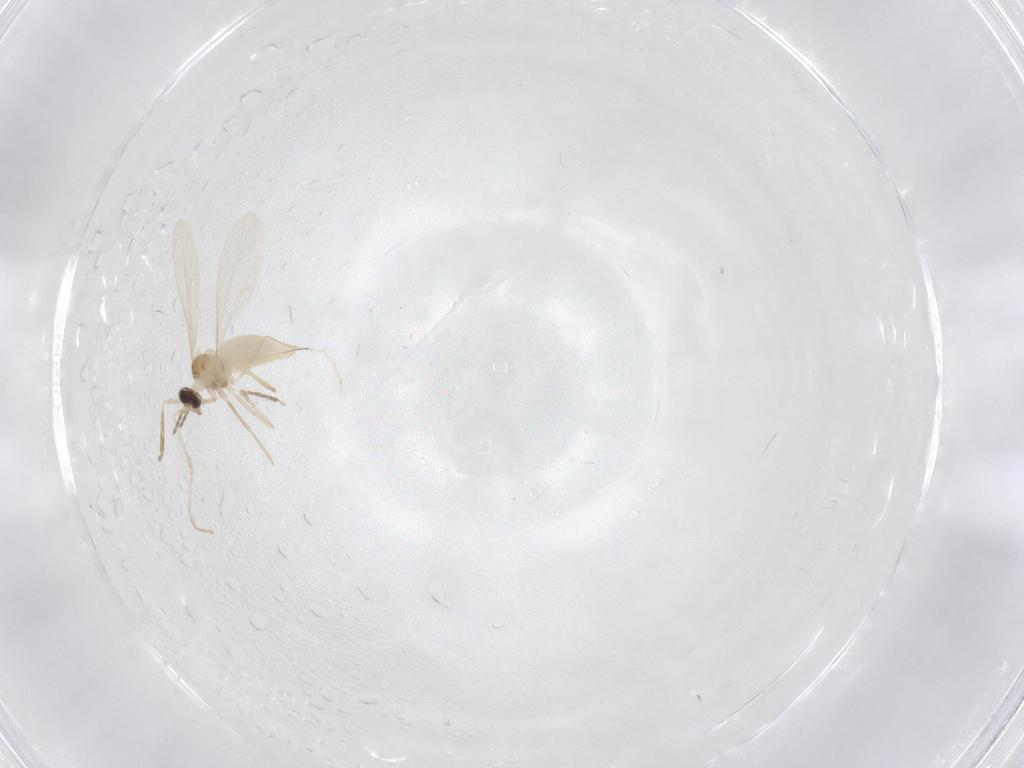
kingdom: Animalia
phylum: Arthropoda
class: Insecta
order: Diptera
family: Cecidomyiidae
